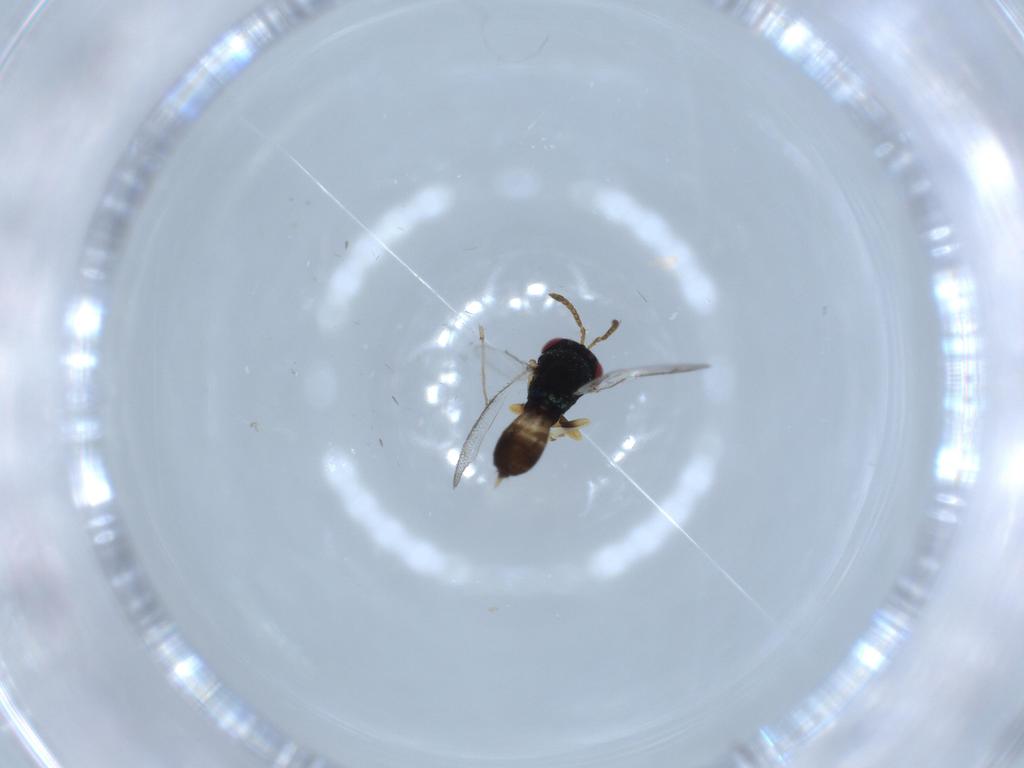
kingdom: Animalia
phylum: Arthropoda
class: Insecta
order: Hymenoptera
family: Pteromalidae
